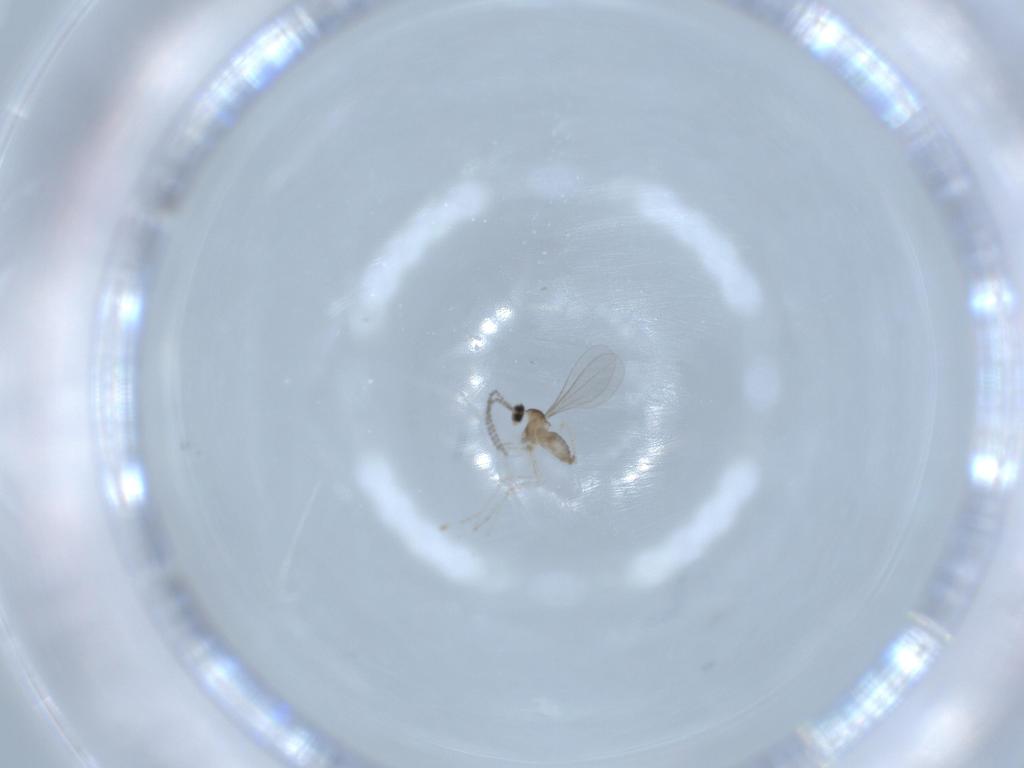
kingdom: Animalia
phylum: Arthropoda
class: Insecta
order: Diptera
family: Cecidomyiidae
